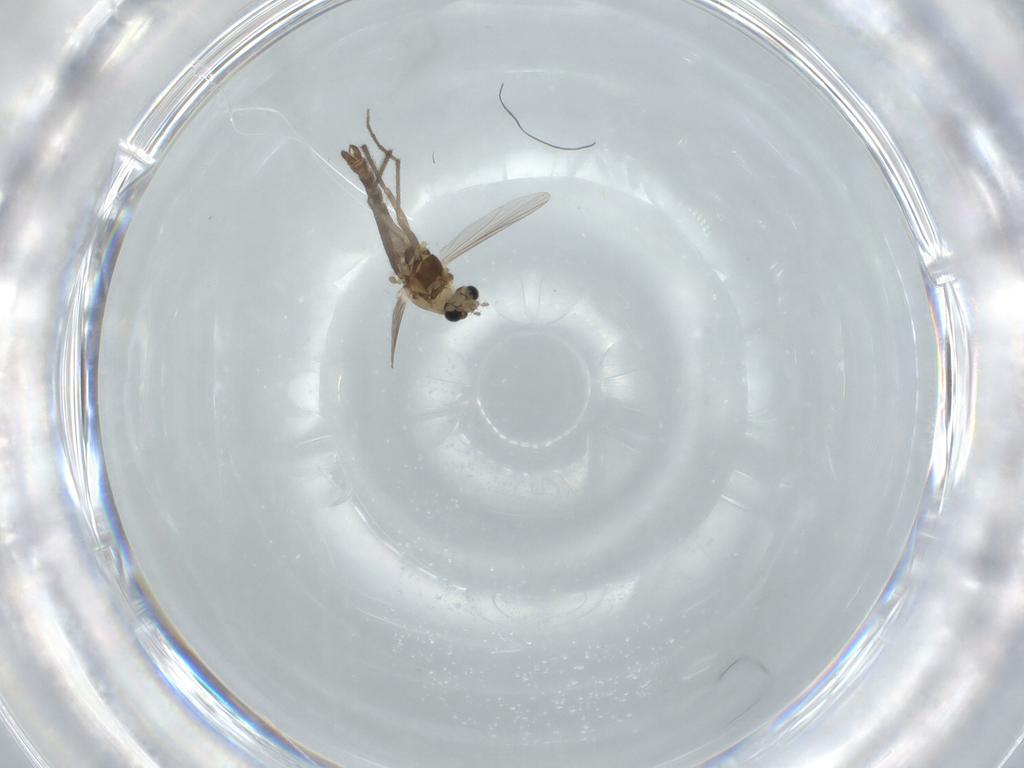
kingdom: Animalia
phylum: Arthropoda
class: Insecta
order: Diptera
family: Chironomidae
